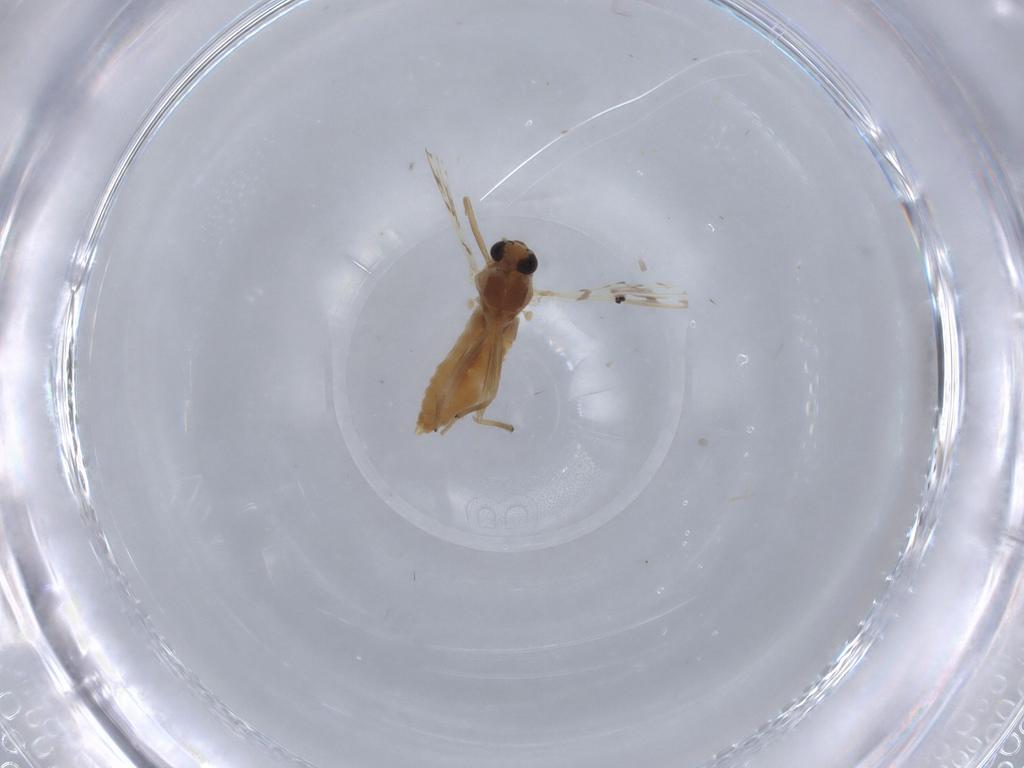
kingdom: Animalia
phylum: Arthropoda
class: Insecta
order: Diptera
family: Chironomidae
